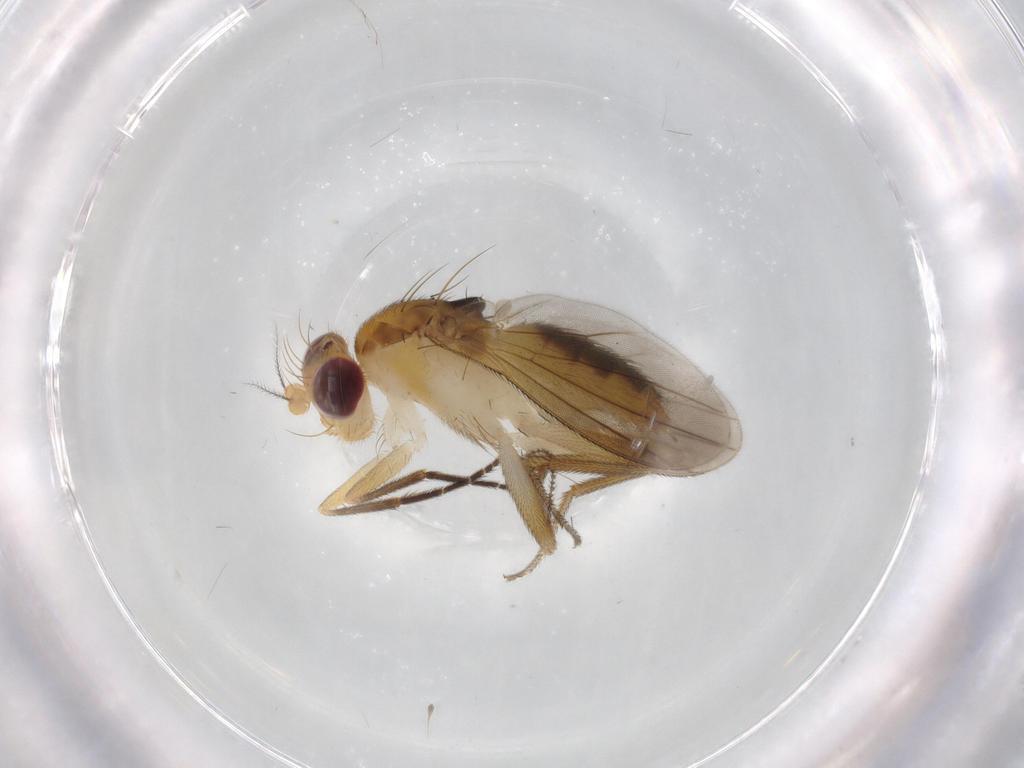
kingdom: Animalia
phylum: Arthropoda
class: Insecta
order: Diptera
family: Clusiidae
